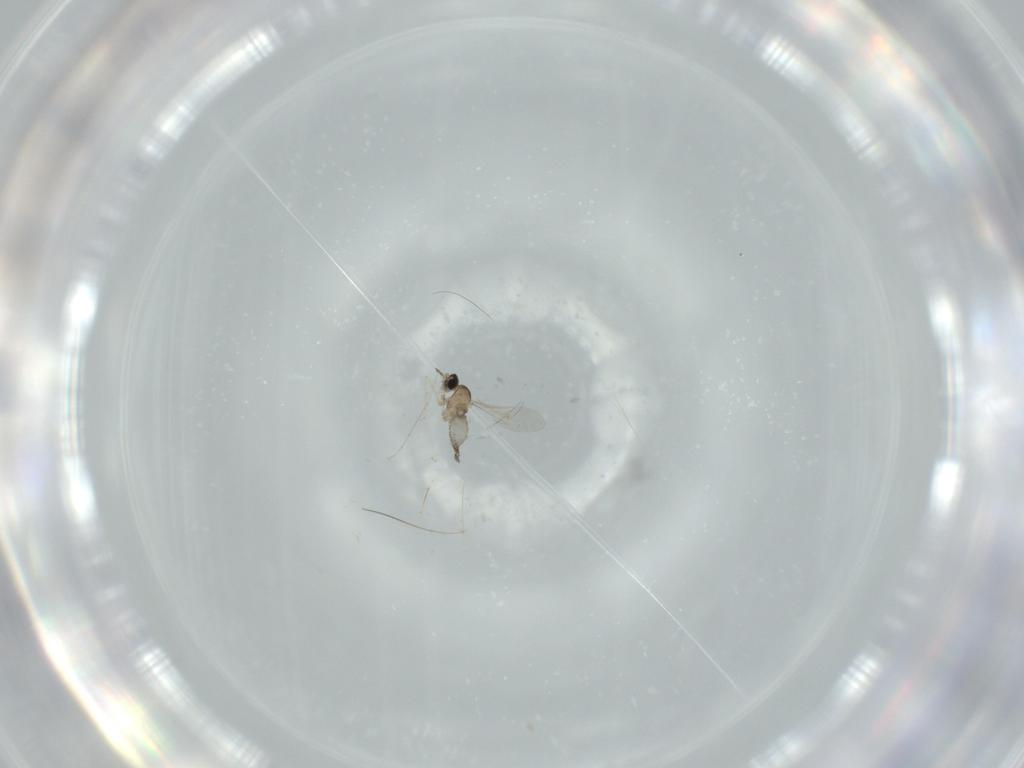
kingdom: Animalia
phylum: Arthropoda
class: Insecta
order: Diptera
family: Cecidomyiidae
